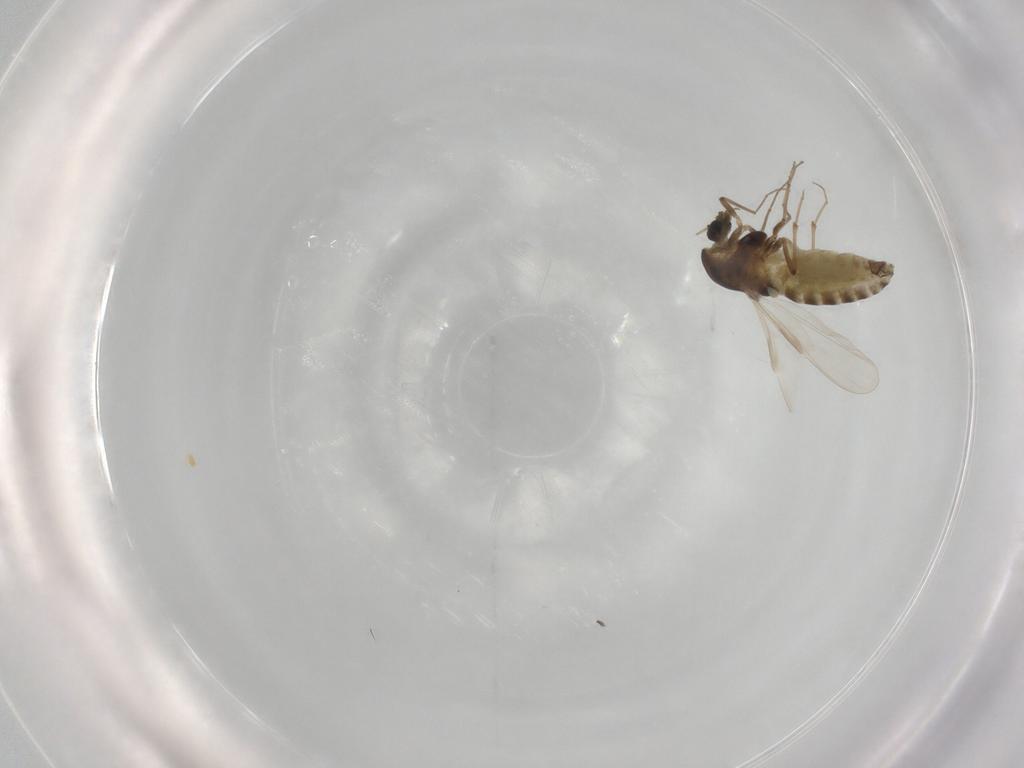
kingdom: Animalia
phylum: Arthropoda
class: Insecta
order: Diptera
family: Chironomidae
